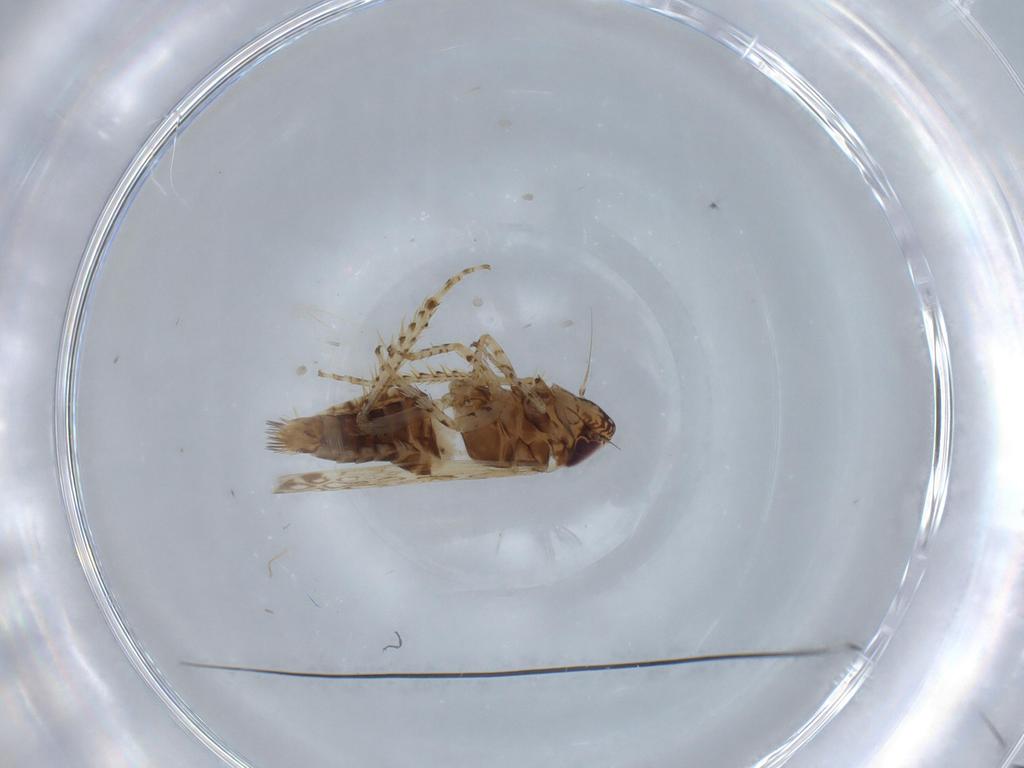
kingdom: Animalia
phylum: Arthropoda
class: Insecta
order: Hemiptera
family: Cicadellidae
